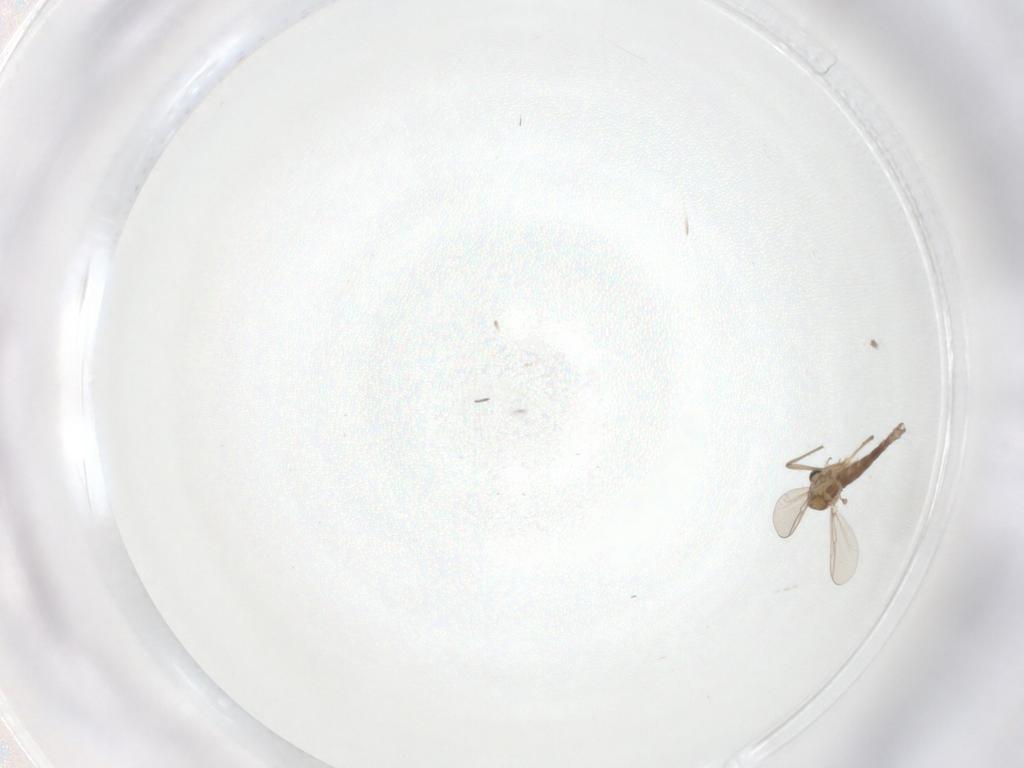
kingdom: Animalia
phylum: Arthropoda
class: Insecta
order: Diptera
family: Chironomidae
